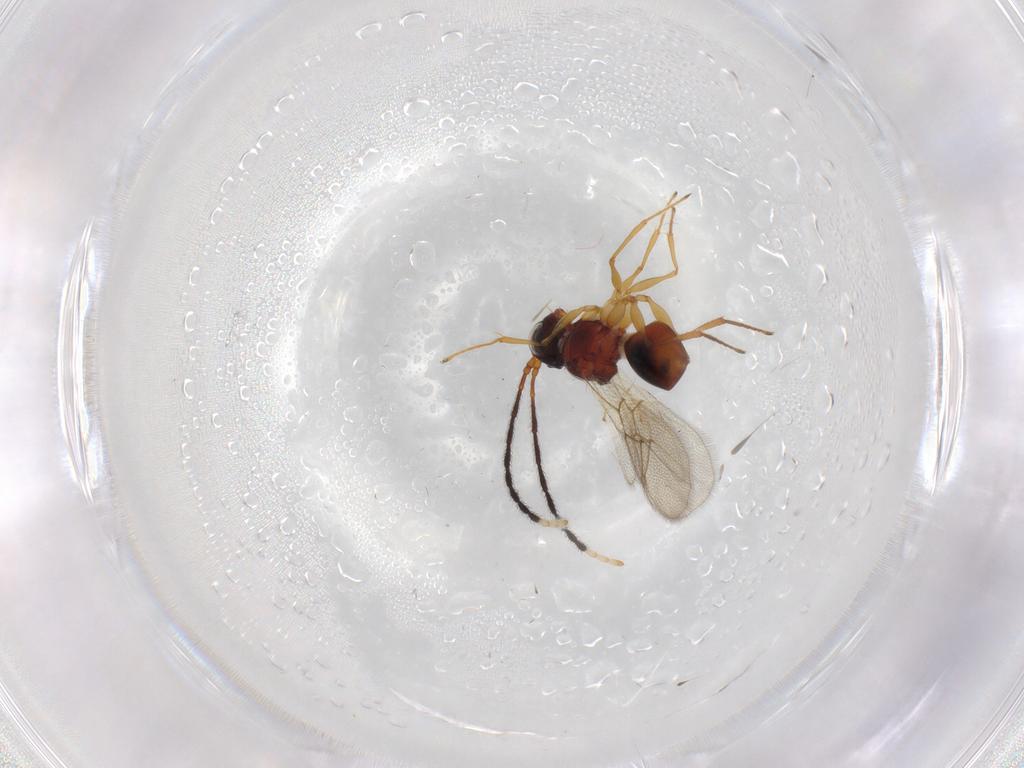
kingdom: Animalia
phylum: Arthropoda
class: Insecta
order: Hymenoptera
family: Figitidae
